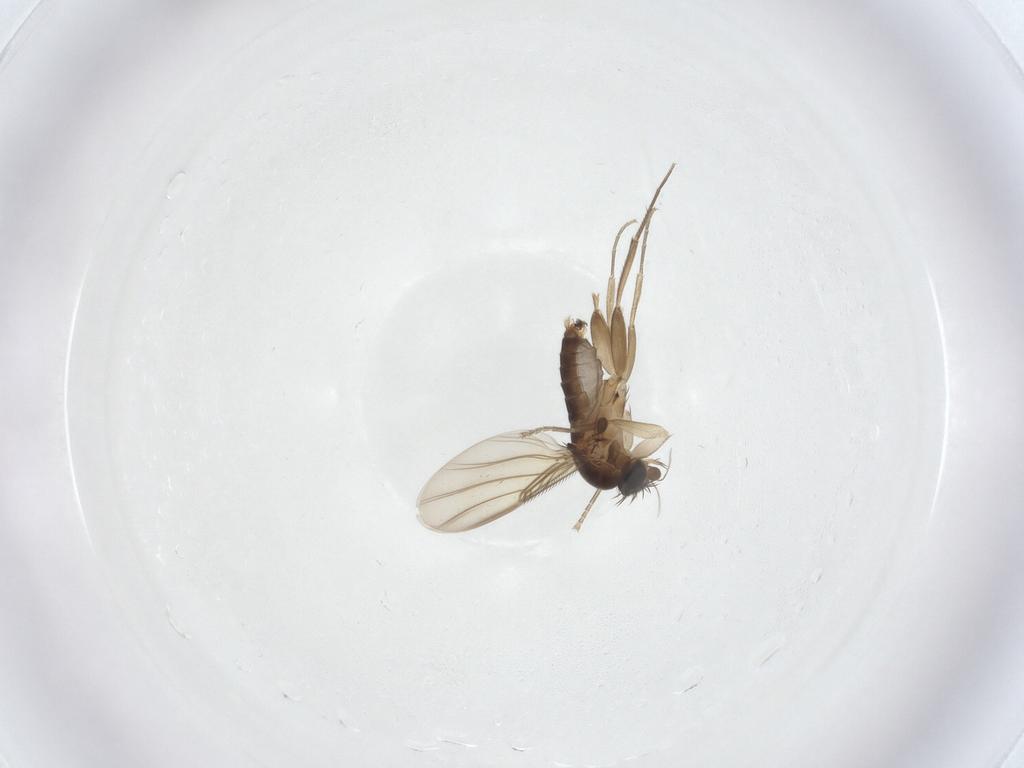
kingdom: Animalia
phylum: Arthropoda
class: Insecta
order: Diptera
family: Phoridae
